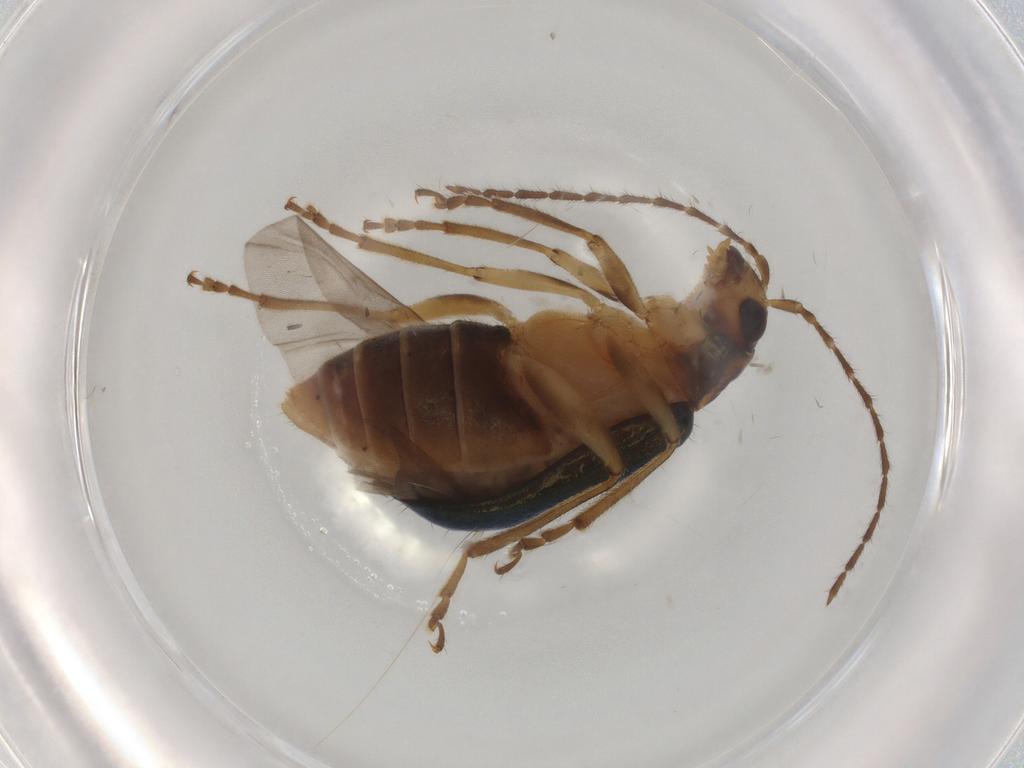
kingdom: Animalia
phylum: Arthropoda
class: Insecta
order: Coleoptera
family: Chrysomelidae
